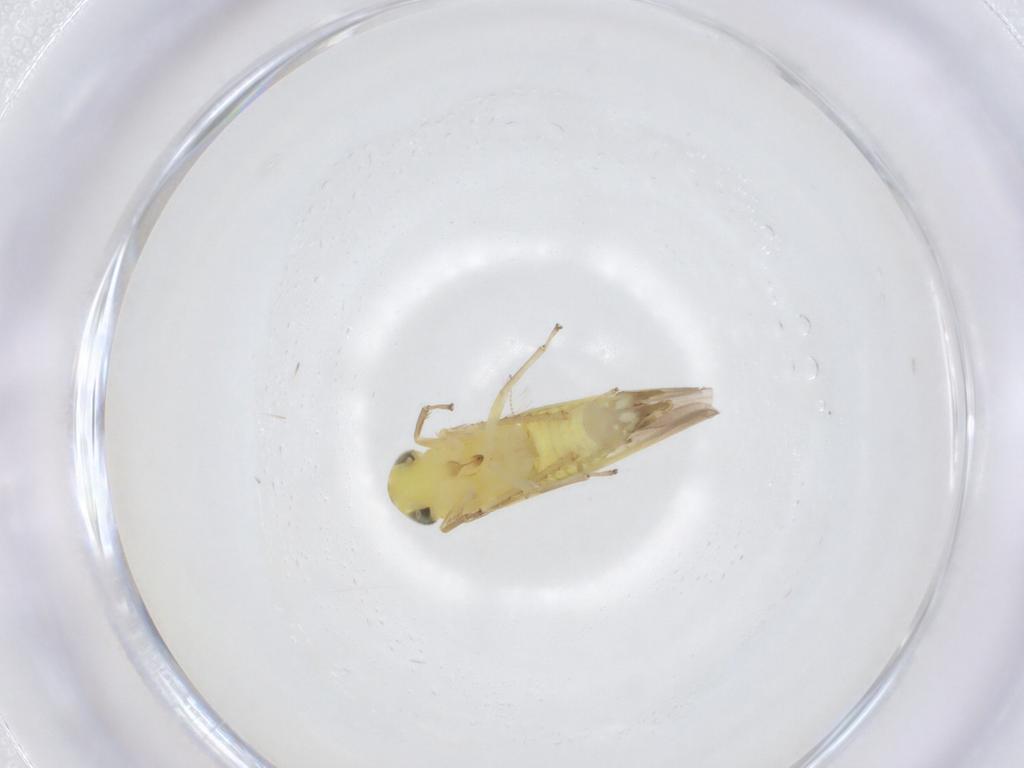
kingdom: Animalia
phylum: Arthropoda
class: Insecta
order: Hemiptera
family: Cicadellidae
